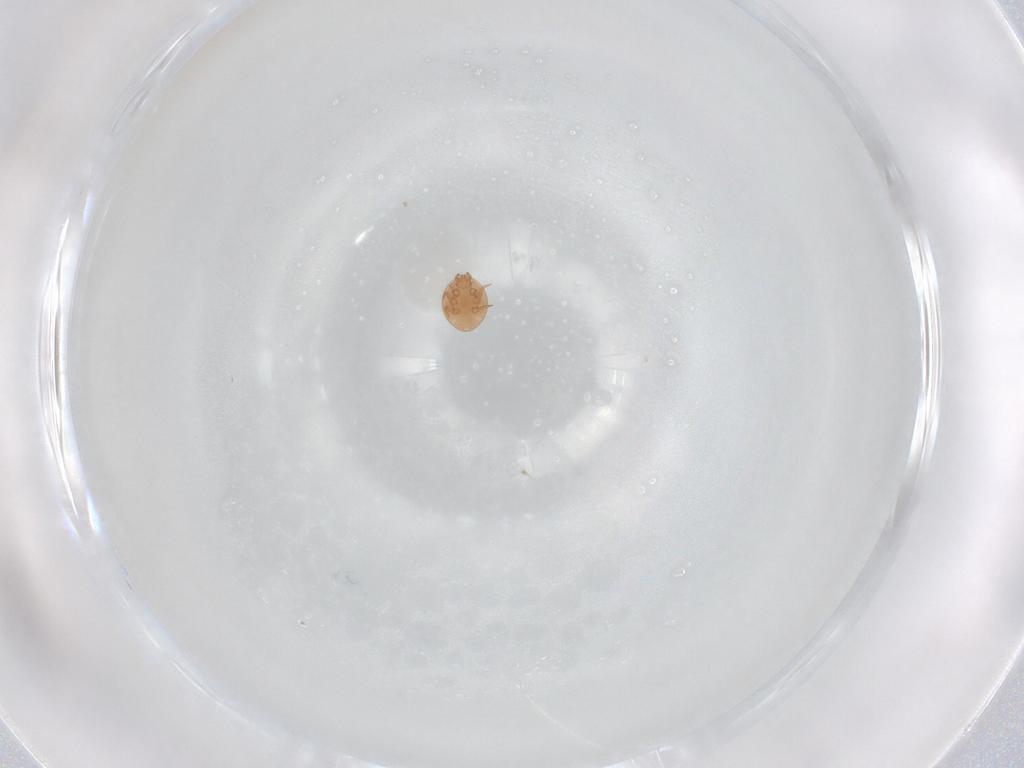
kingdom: Animalia
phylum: Arthropoda
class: Arachnida
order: Mesostigmata
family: Trematuridae
